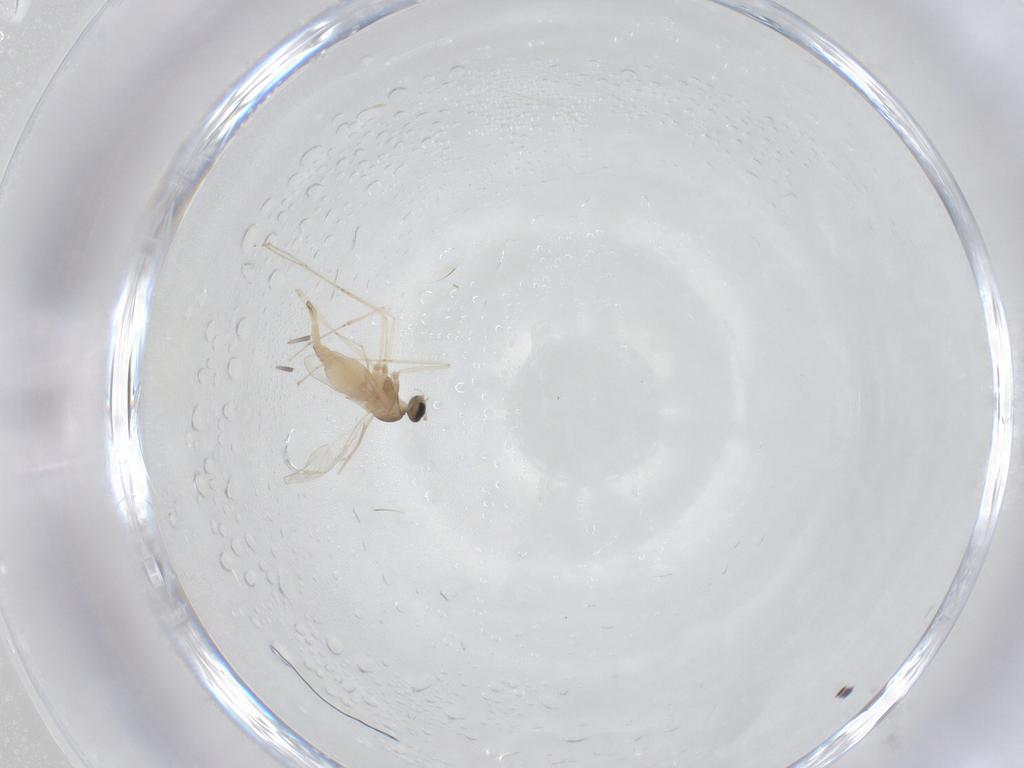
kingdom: Animalia
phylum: Arthropoda
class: Insecta
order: Diptera
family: Cecidomyiidae
